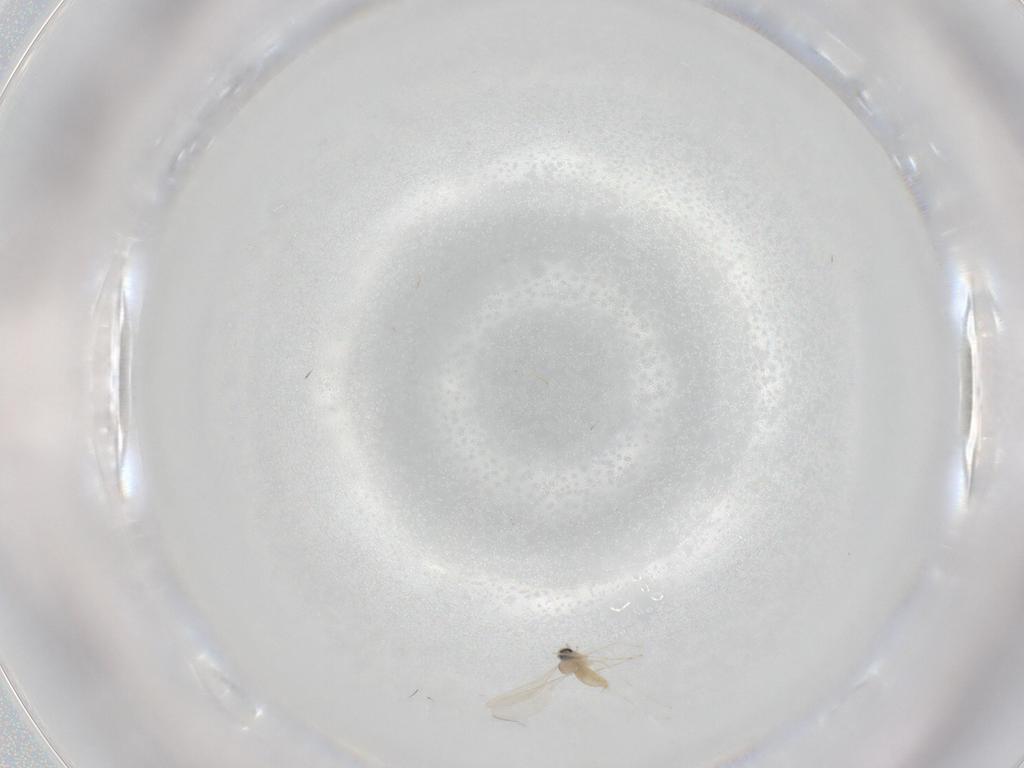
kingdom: Animalia
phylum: Arthropoda
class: Insecta
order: Diptera
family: Cecidomyiidae
